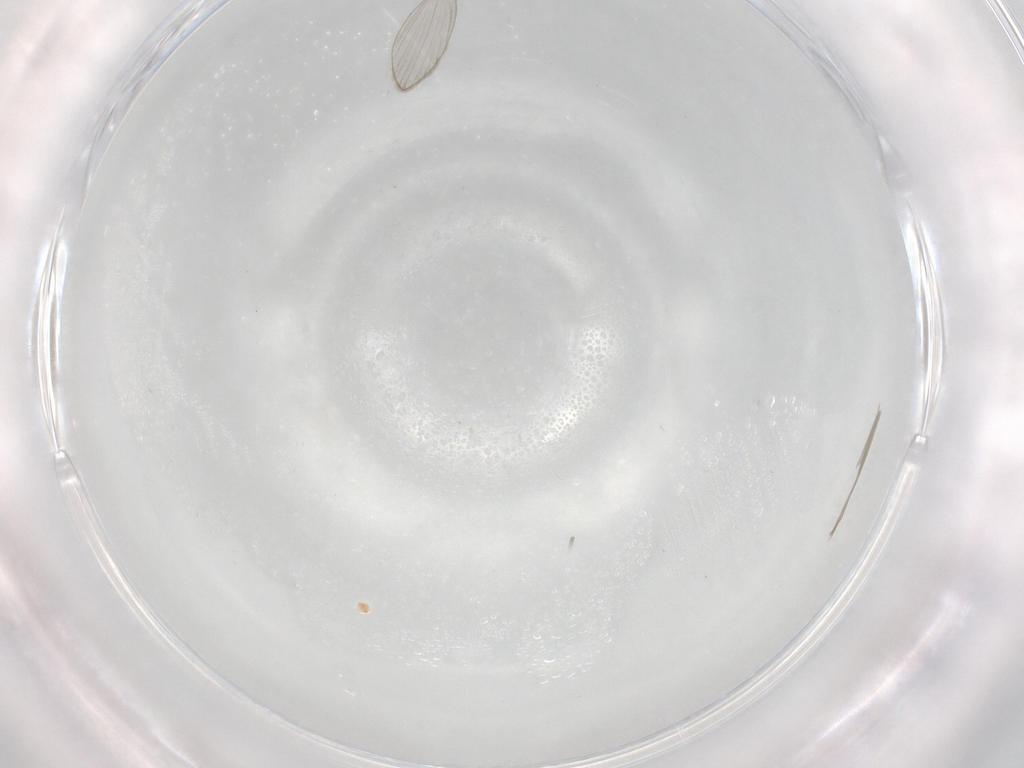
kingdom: Animalia
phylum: Arthropoda
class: Insecta
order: Diptera
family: Psychodidae
